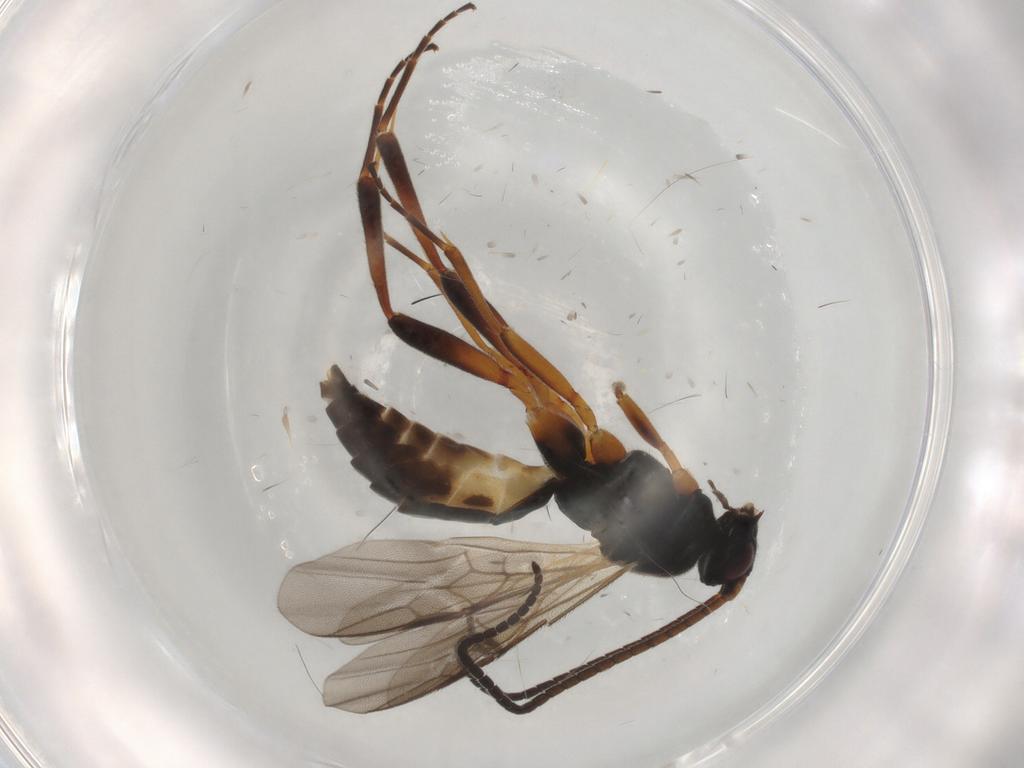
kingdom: Animalia
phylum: Arthropoda
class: Insecta
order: Hymenoptera
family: Braconidae
